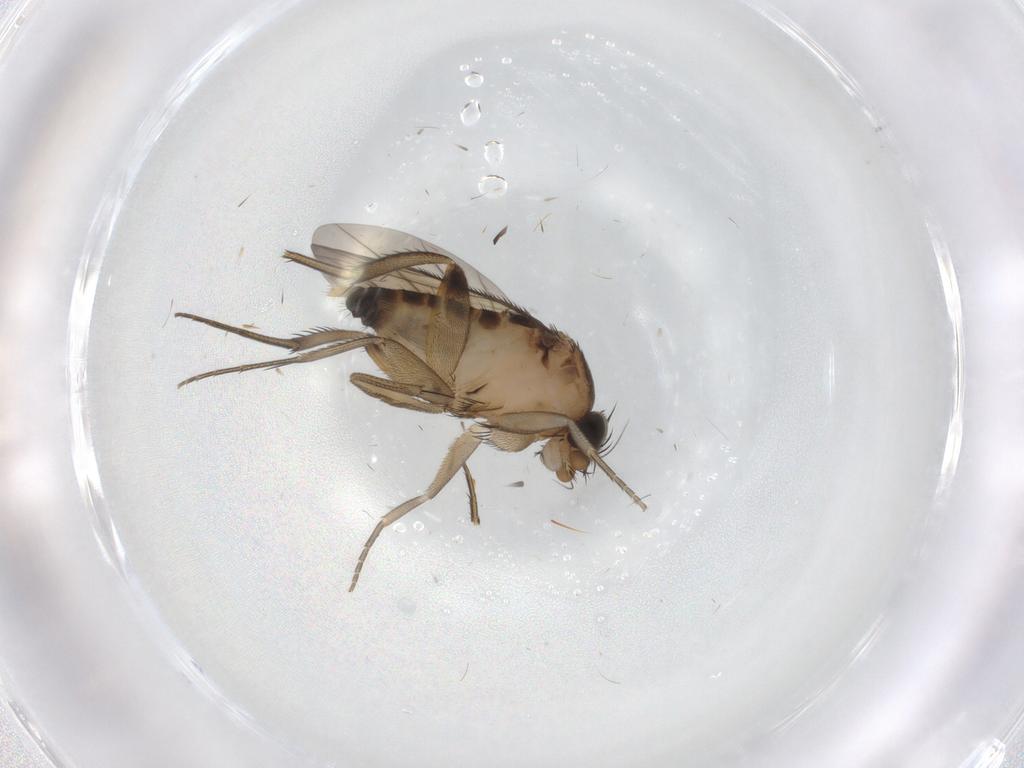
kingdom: Animalia
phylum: Arthropoda
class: Insecta
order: Diptera
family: Phoridae
